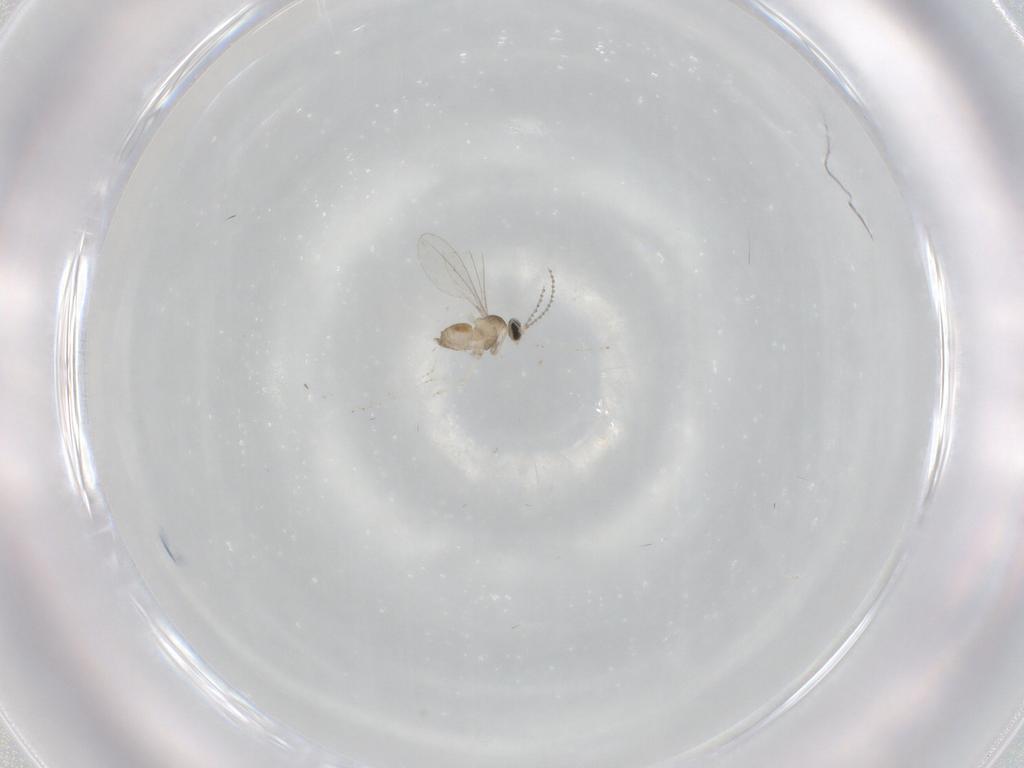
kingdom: Animalia
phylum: Arthropoda
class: Insecta
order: Diptera
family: Cecidomyiidae
